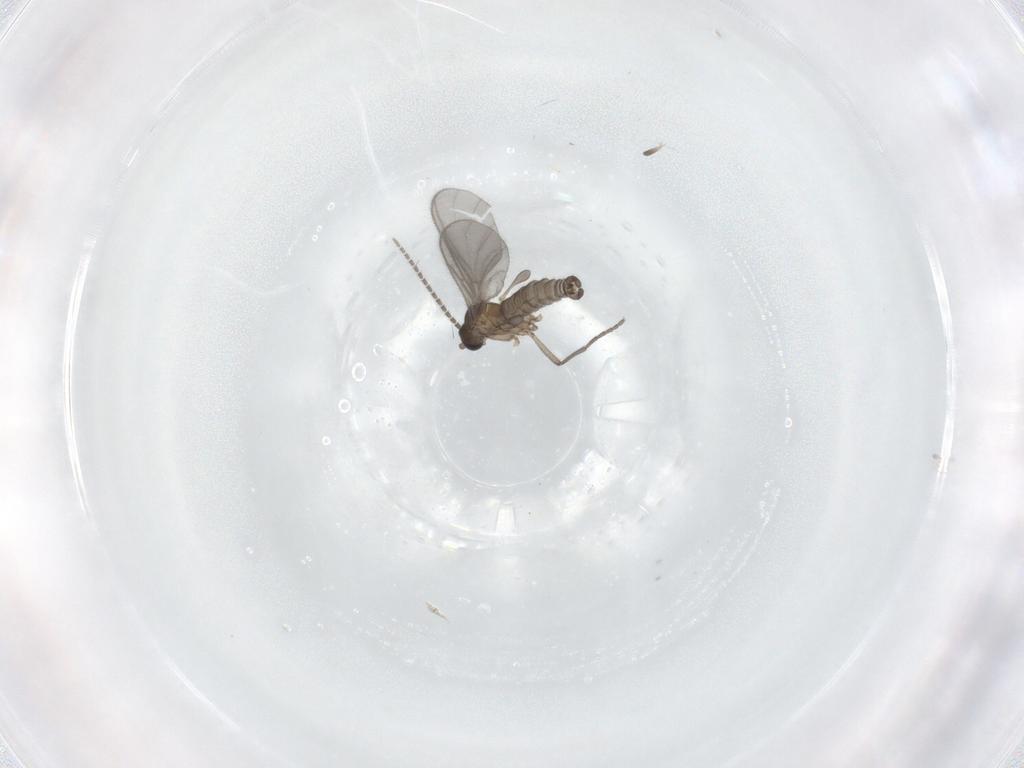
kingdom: Animalia
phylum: Arthropoda
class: Insecta
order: Diptera
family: Sciaridae
